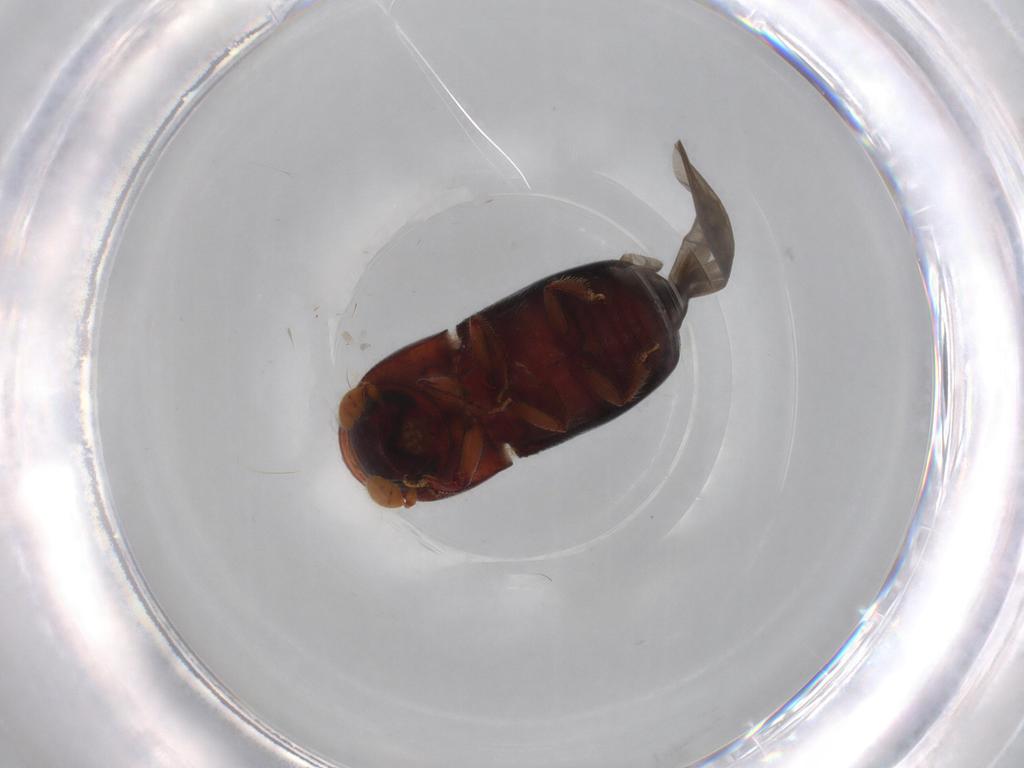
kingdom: Animalia
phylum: Arthropoda
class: Insecta
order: Coleoptera
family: Curculionidae
